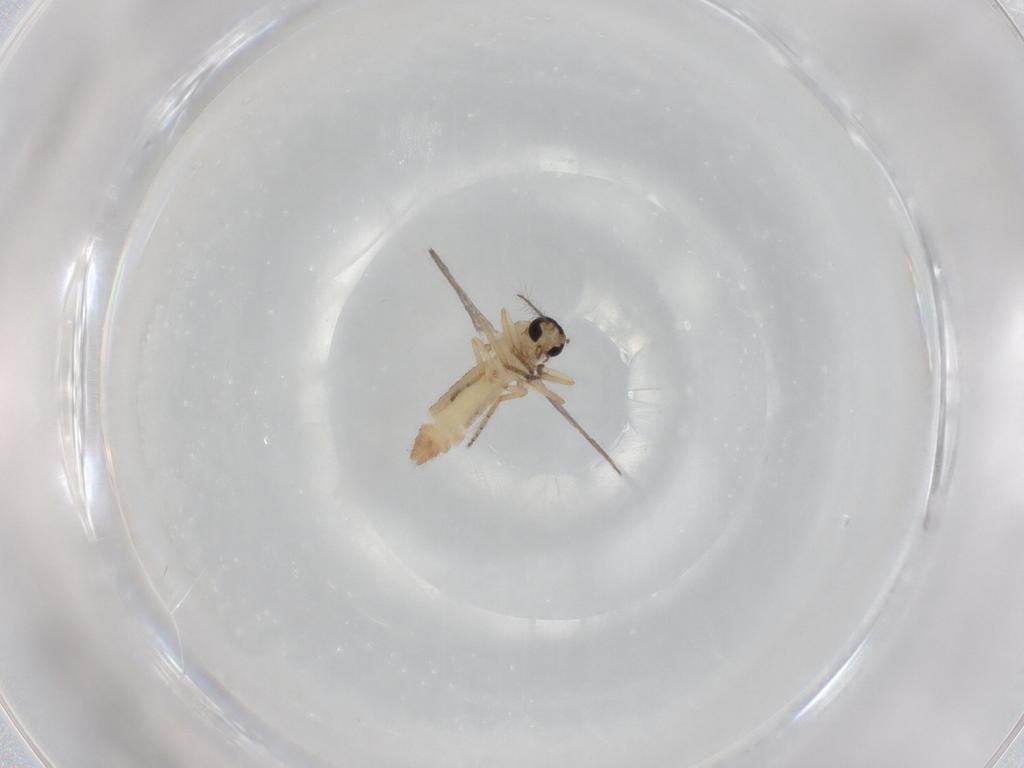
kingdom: Animalia
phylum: Arthropoda
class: Insecta
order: Diptera
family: Ceratopogonidae
